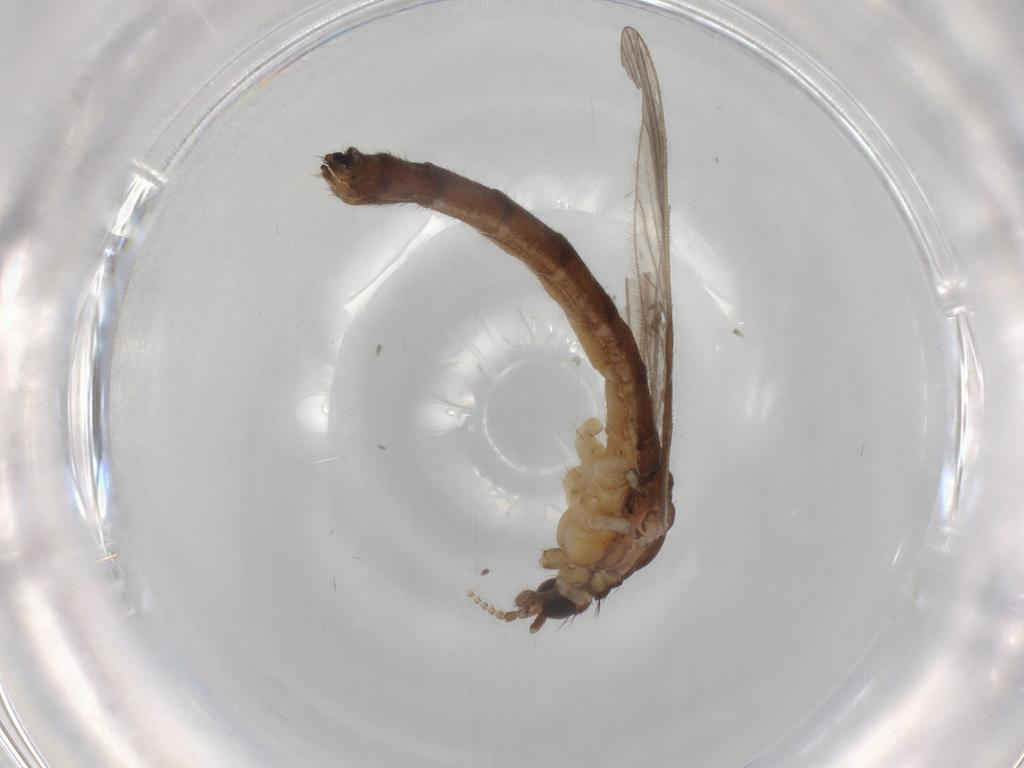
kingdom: Animalia
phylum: Arthropoda
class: Insecta
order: Diptera
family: Limoniidae
